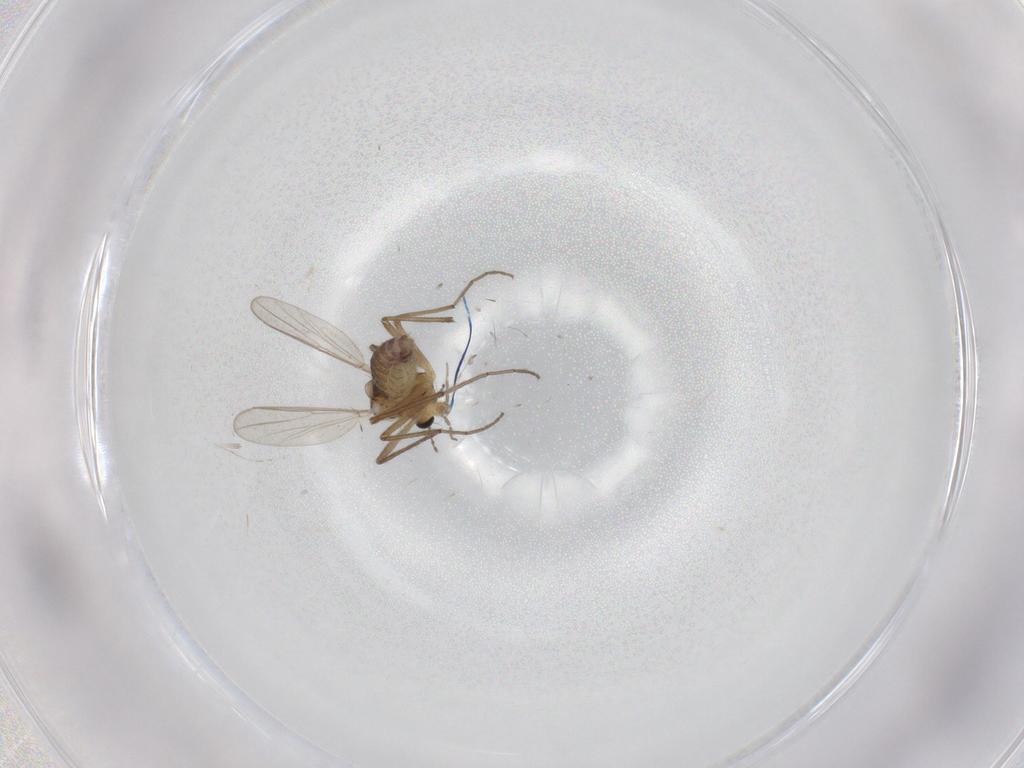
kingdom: Animalia
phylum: Arthropoda
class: Insecta
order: Diptera
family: Chironomidae
